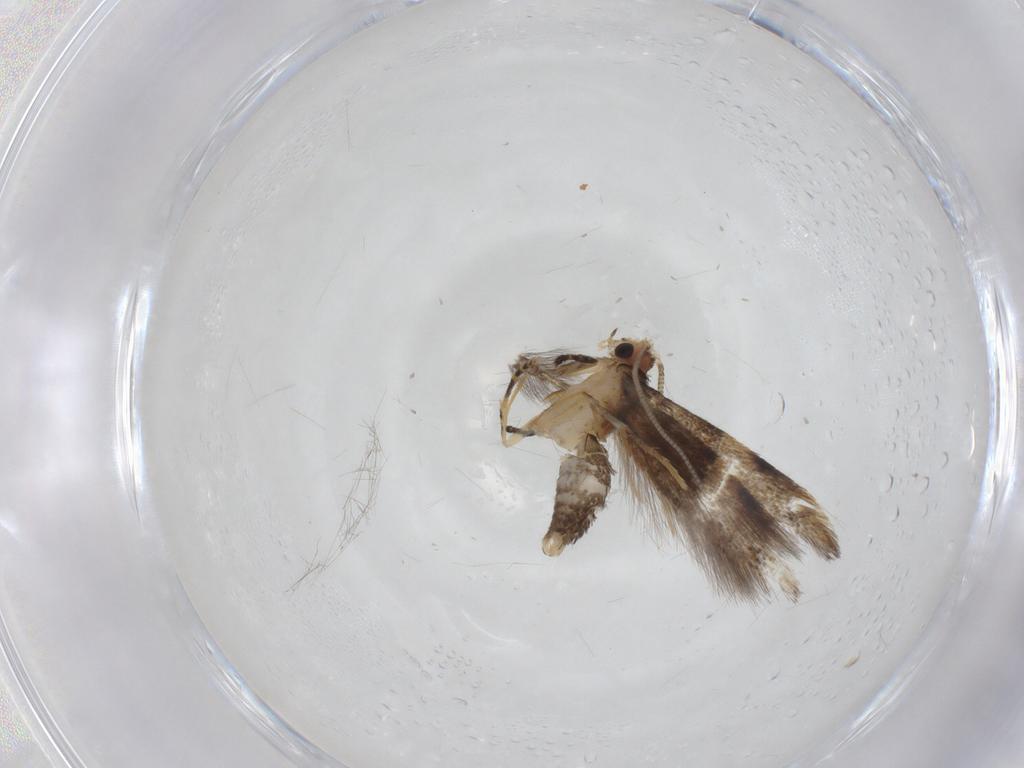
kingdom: Animalia
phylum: Arthropoda
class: Insecta
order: Lepidoptera
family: Tineidae
